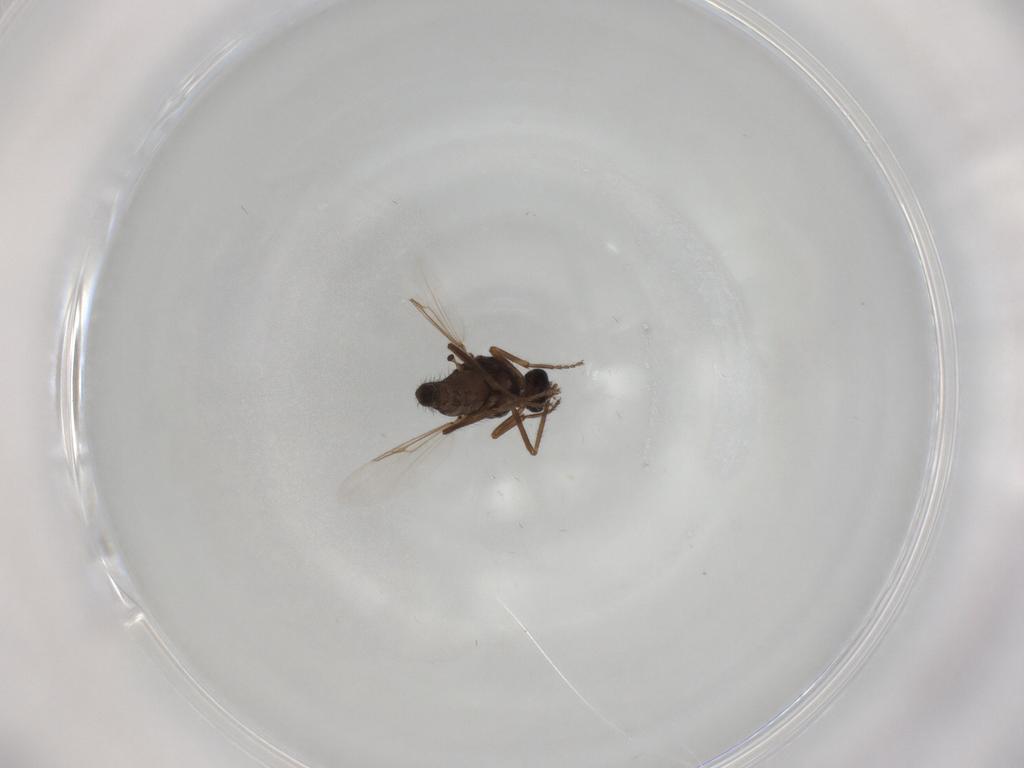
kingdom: Animalia
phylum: Arthropoda
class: Insecta
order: Diptera
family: Ceratopogonidae
